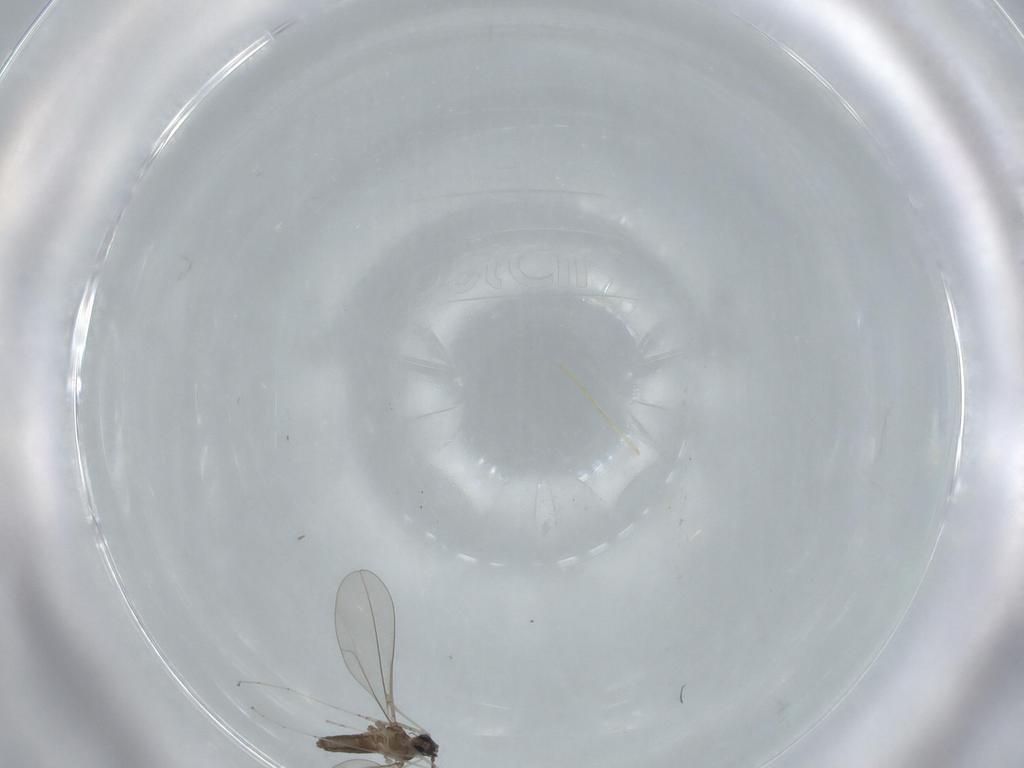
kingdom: Animalia
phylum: Arthropoda
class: Insecta
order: Diptera
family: Cecidomyiidae
